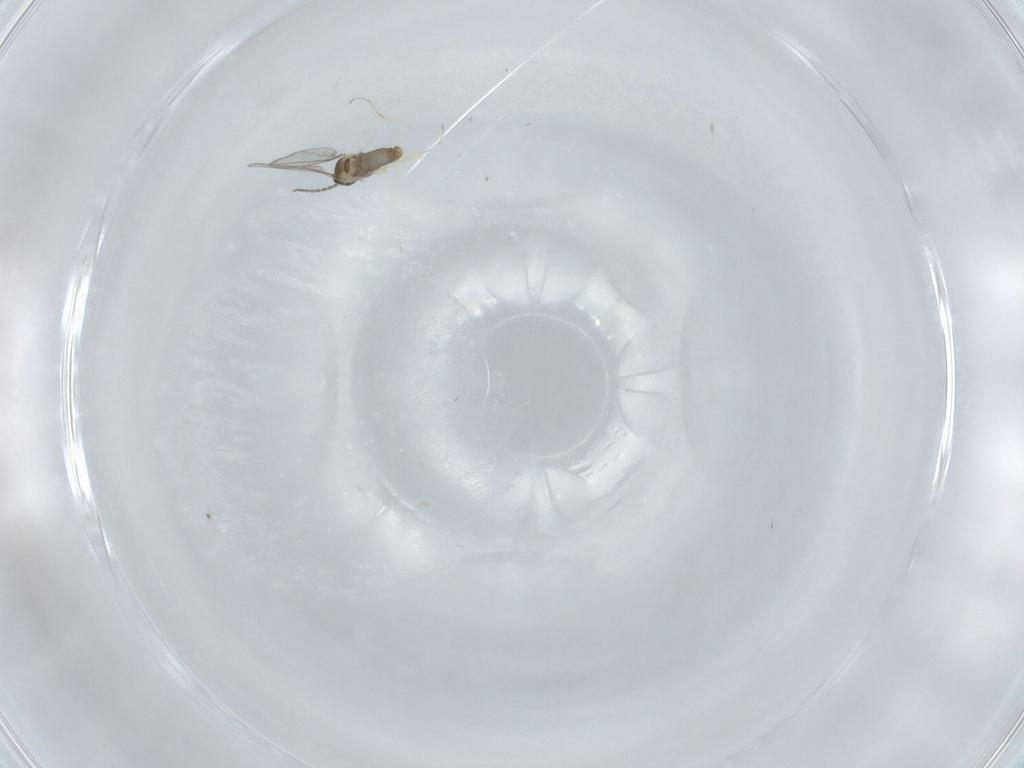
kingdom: Animalia
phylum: Arthropoda
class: Insecta
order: Diptera
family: Cecidomyiidae
